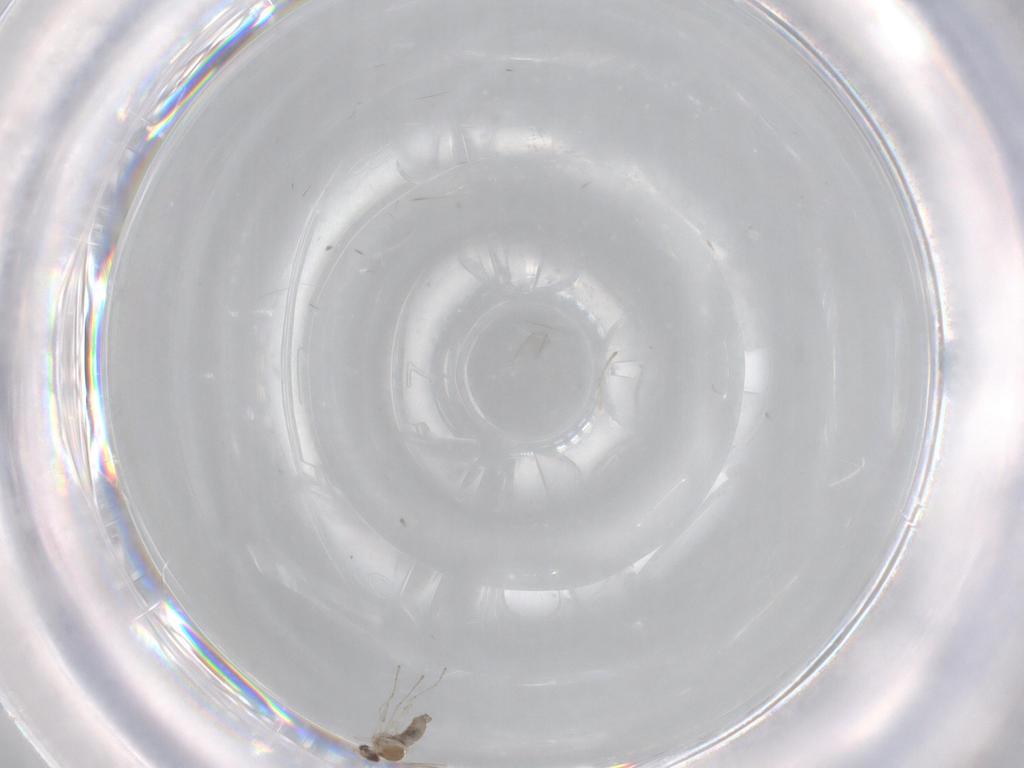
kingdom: Animalia
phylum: Arthropoda
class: Insecta
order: Diptera
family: Cecidomyiidae
